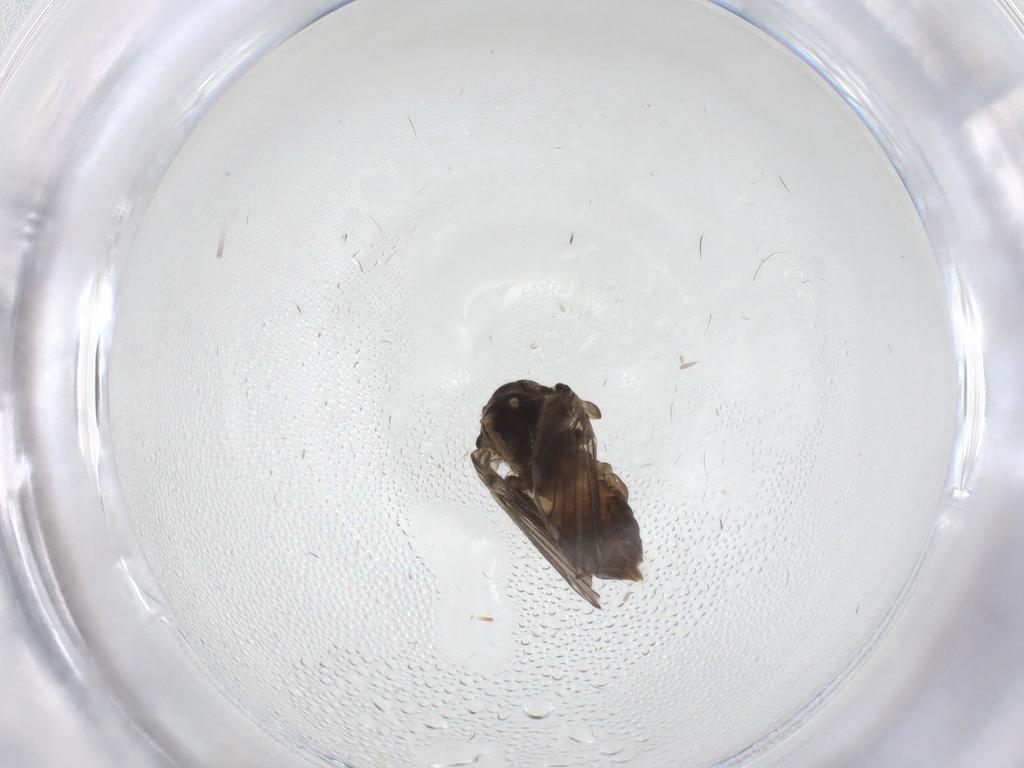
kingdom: Animalia
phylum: Arthropoda
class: Insecta
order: Diptera
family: Psychodidae
